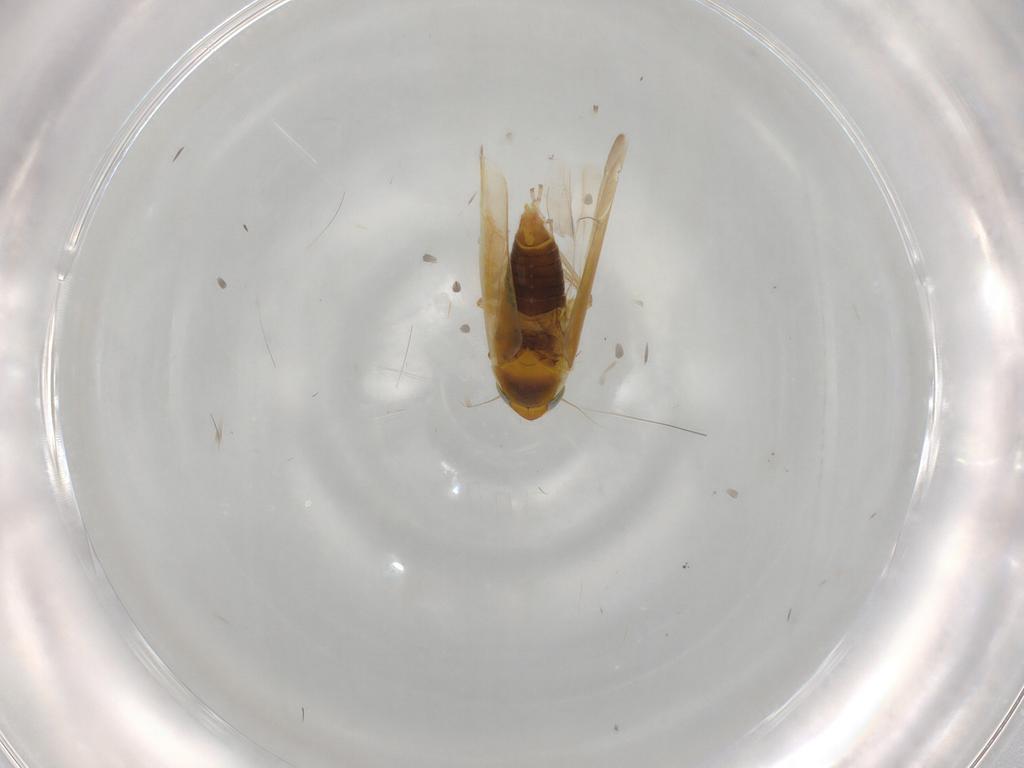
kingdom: Animalia
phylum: Arthropoda
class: Insecta
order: Hemiptera
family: Cicadellidae
